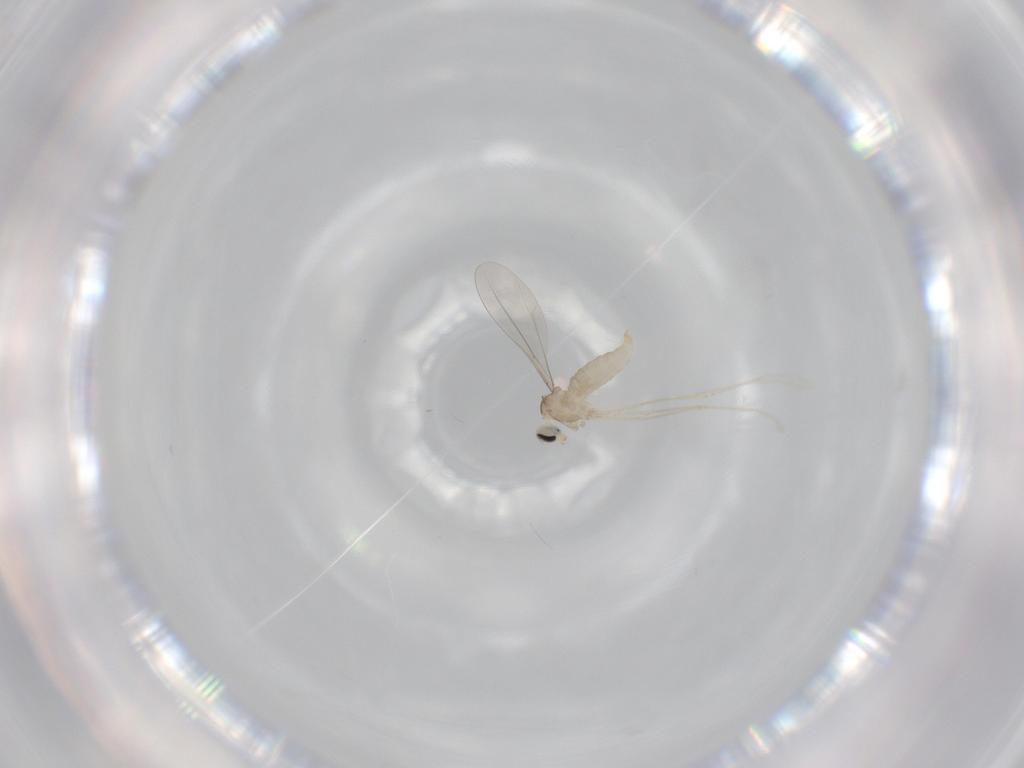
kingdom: Animalia
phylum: Arthropoda
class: Insecta
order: Diptera
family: Cecidomyiidae
